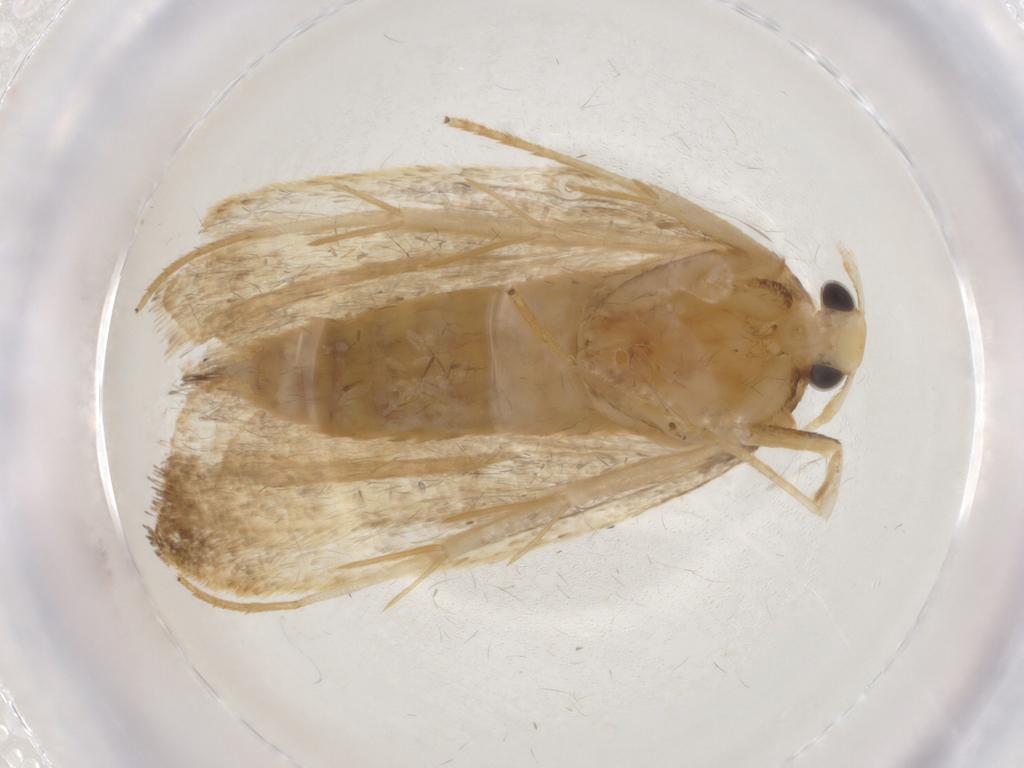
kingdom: Animalia
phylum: Arthropoda
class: Insecta
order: Lepidoptera
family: Lecithoceridae
